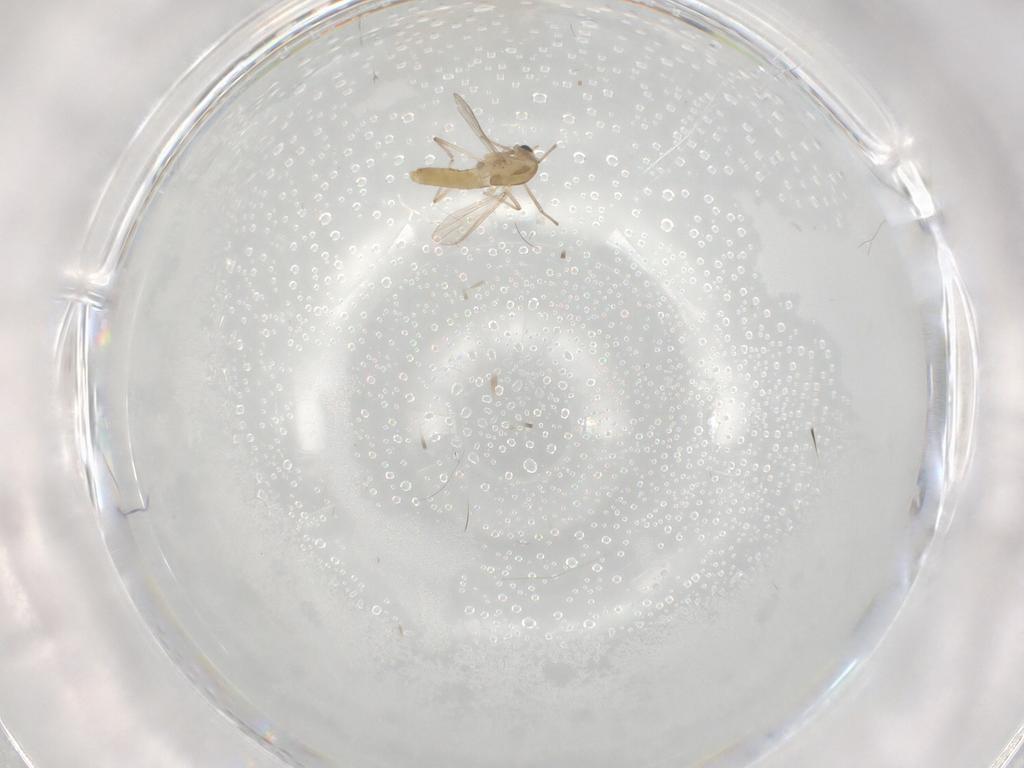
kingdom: Animalia
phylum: Arthropoda
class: Insecta
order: Diptera
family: Chironomidae
